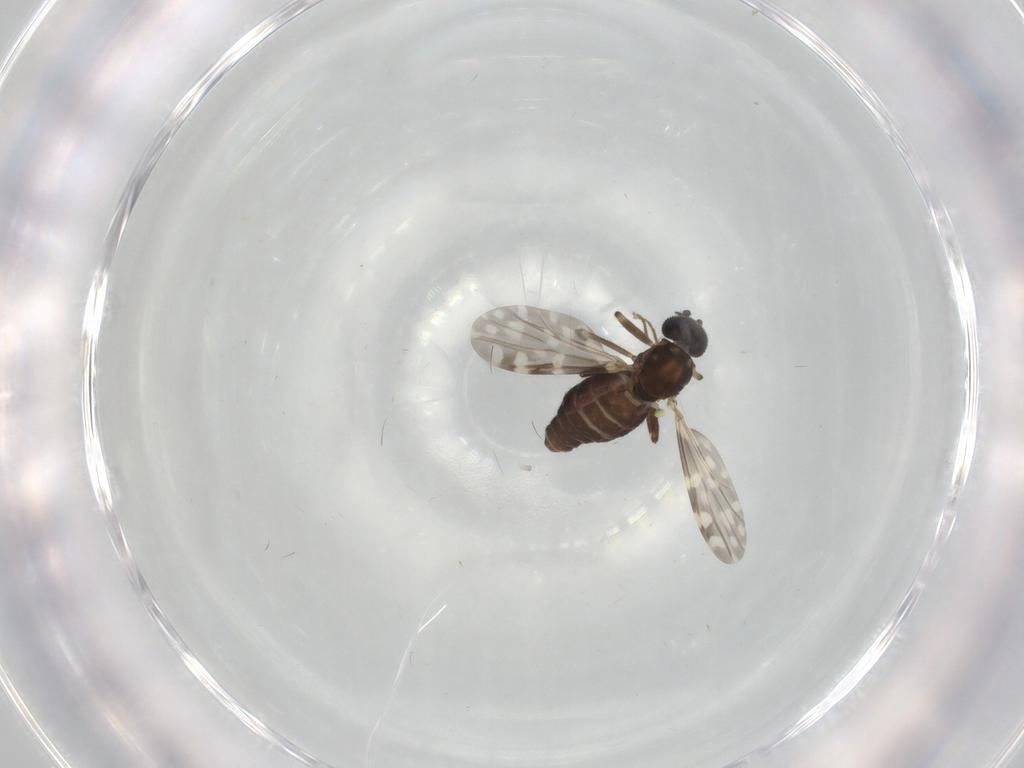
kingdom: Animalia
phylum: Arthropoda
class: Insecta
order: Diptera
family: Ceratopogonidae
